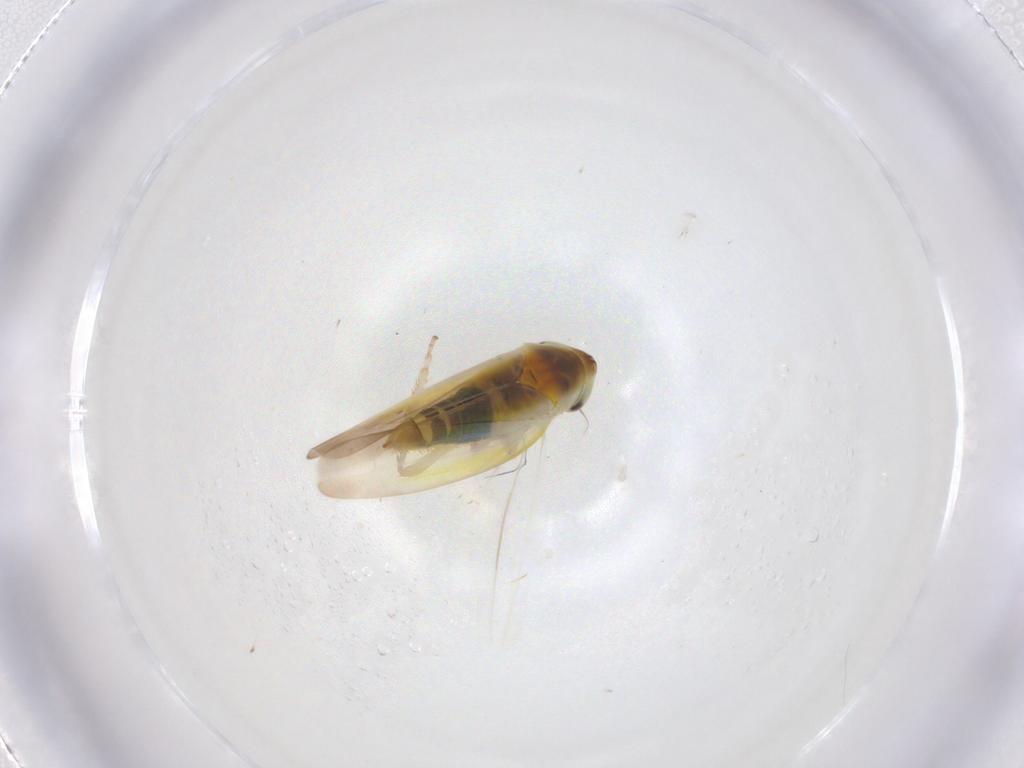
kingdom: Animalia
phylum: Arthropoda
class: Insecta
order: Hemiptera
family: Cicadellidae
